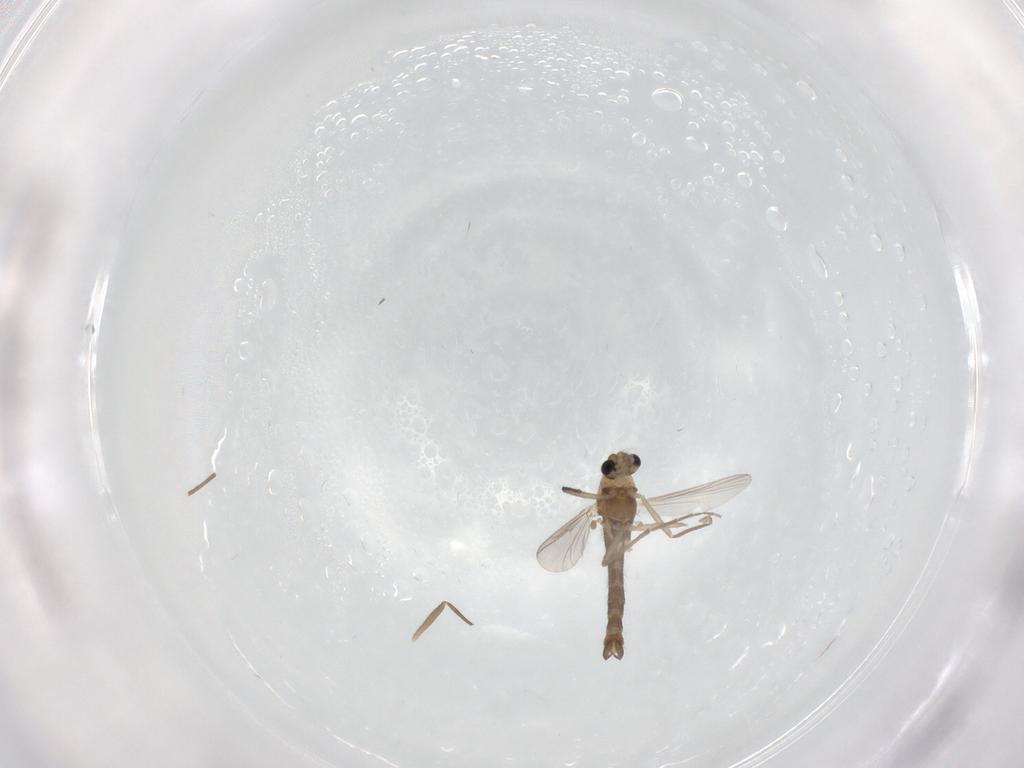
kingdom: Animalia
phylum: Arthropoda
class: Insecta
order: Diptera
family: Chironomidae
